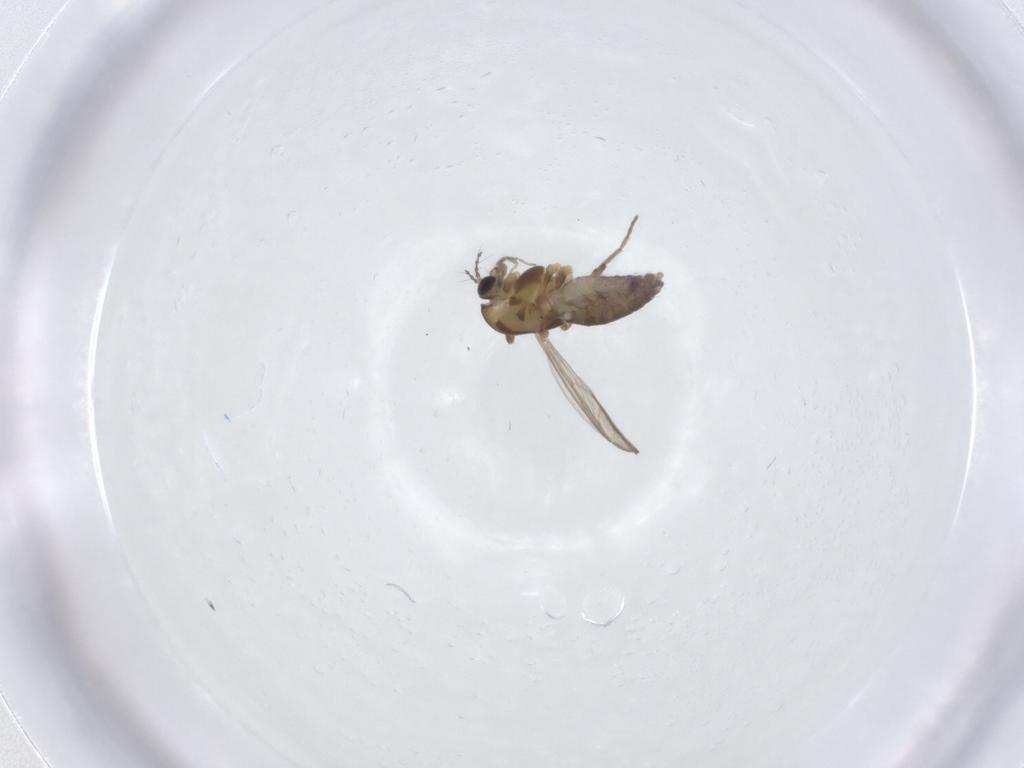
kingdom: Animalia
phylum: Arthropoda
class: Insecta
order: Diptera
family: Chironomidae
